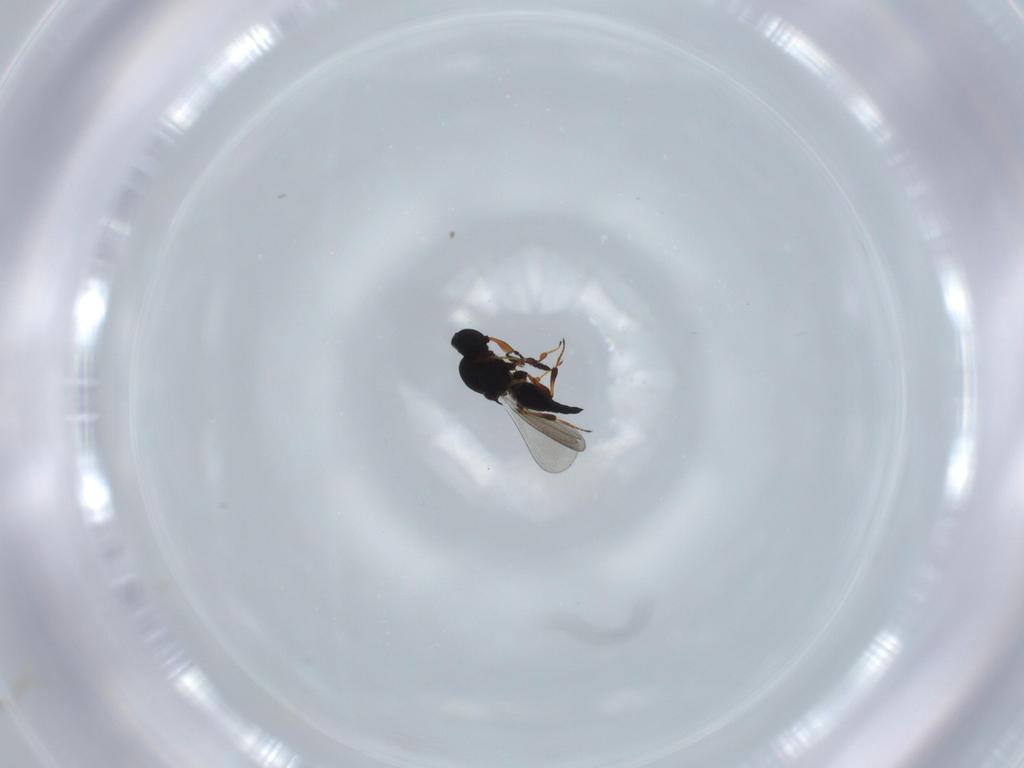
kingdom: Animalia
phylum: Arthropoda
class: Insecta
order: Hymenoptera
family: Platygastridae
